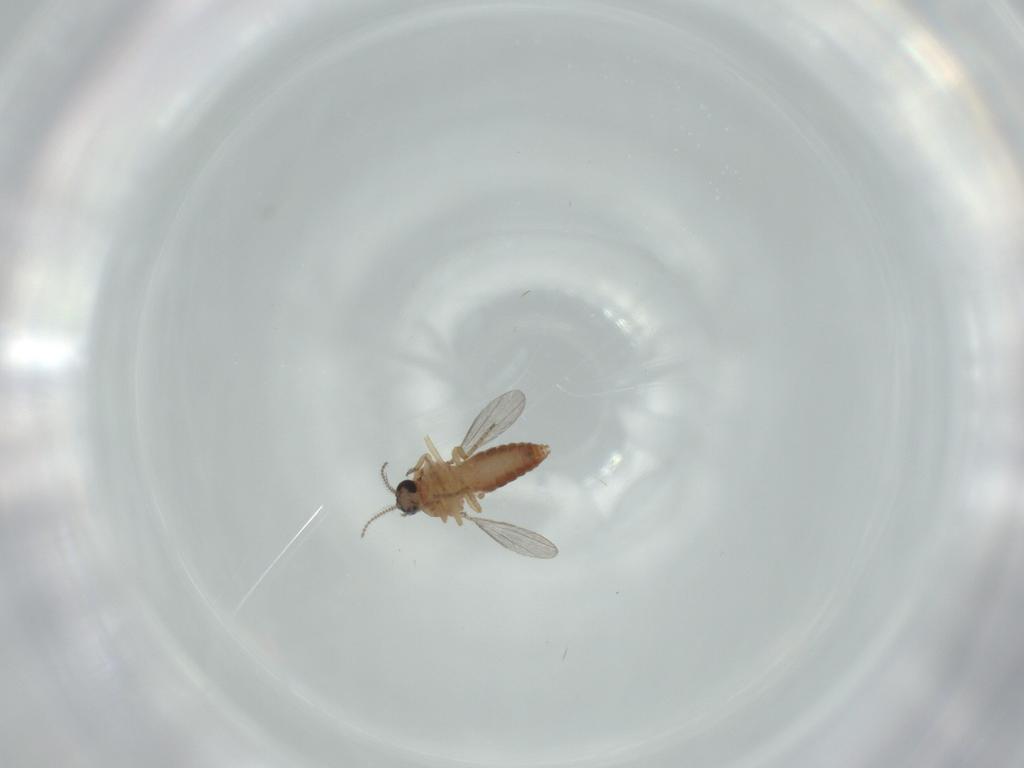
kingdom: Animalia
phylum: Arthropoda
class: Insecta
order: Diptera
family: Ceratopogonidae
